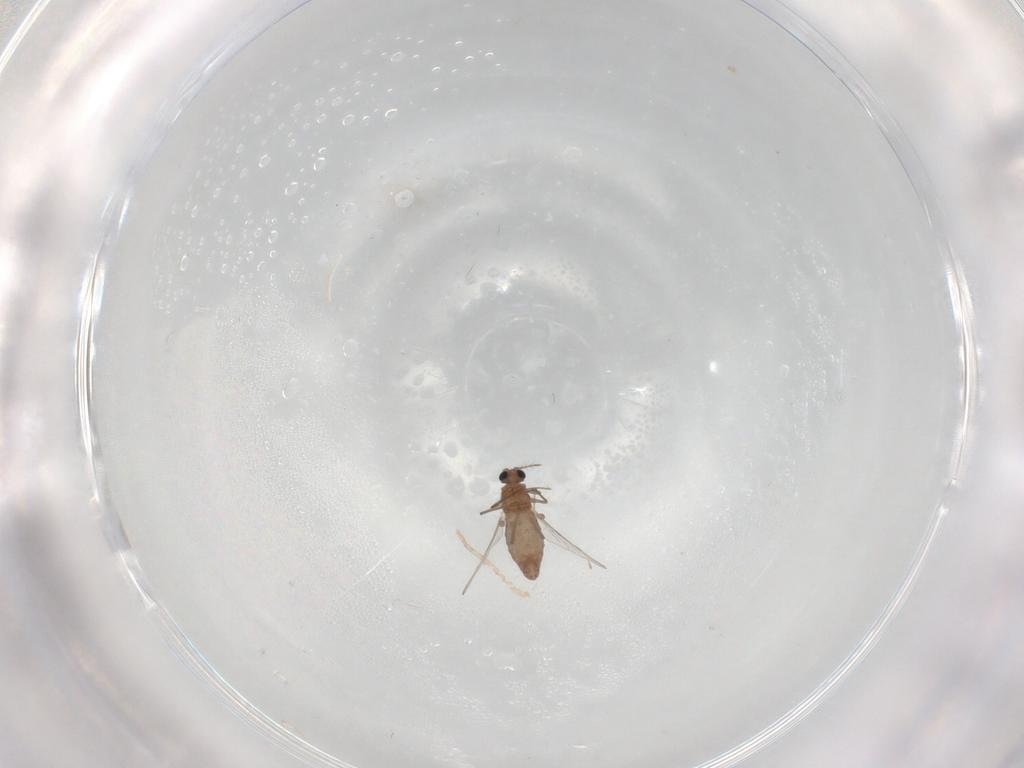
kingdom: Animalia
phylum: Arthropoda
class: Insecta
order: Diptera
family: Chironomidae
